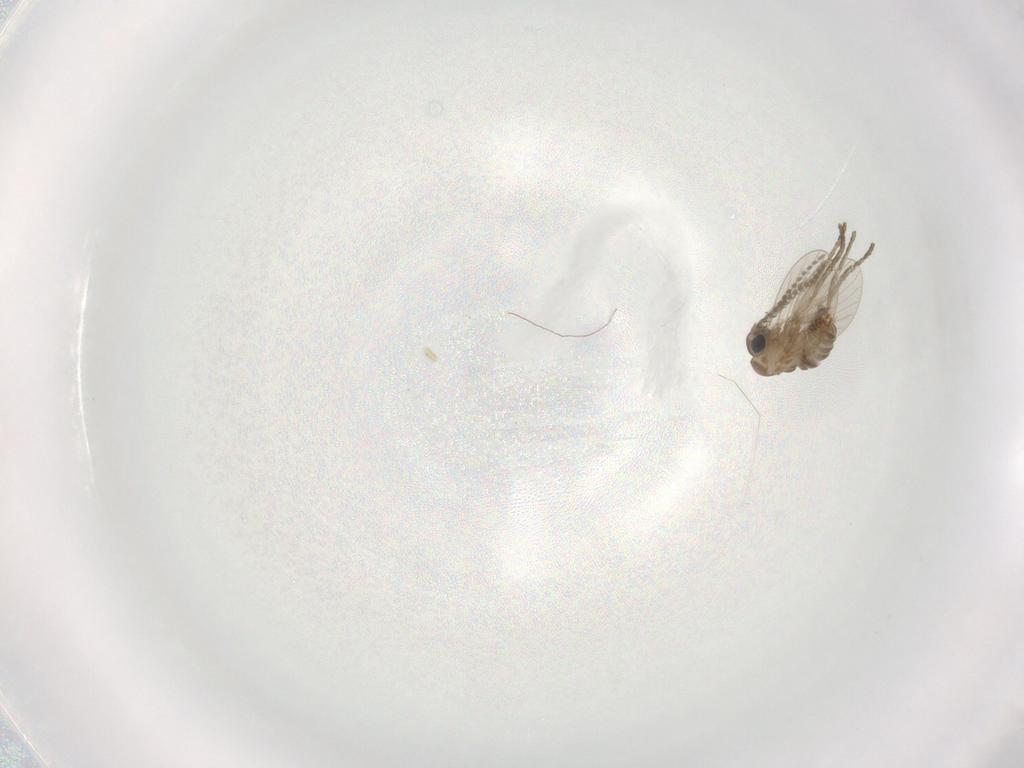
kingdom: Animalia
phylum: Arthropoda
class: Insecta
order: Diptera
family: Psychodidae
